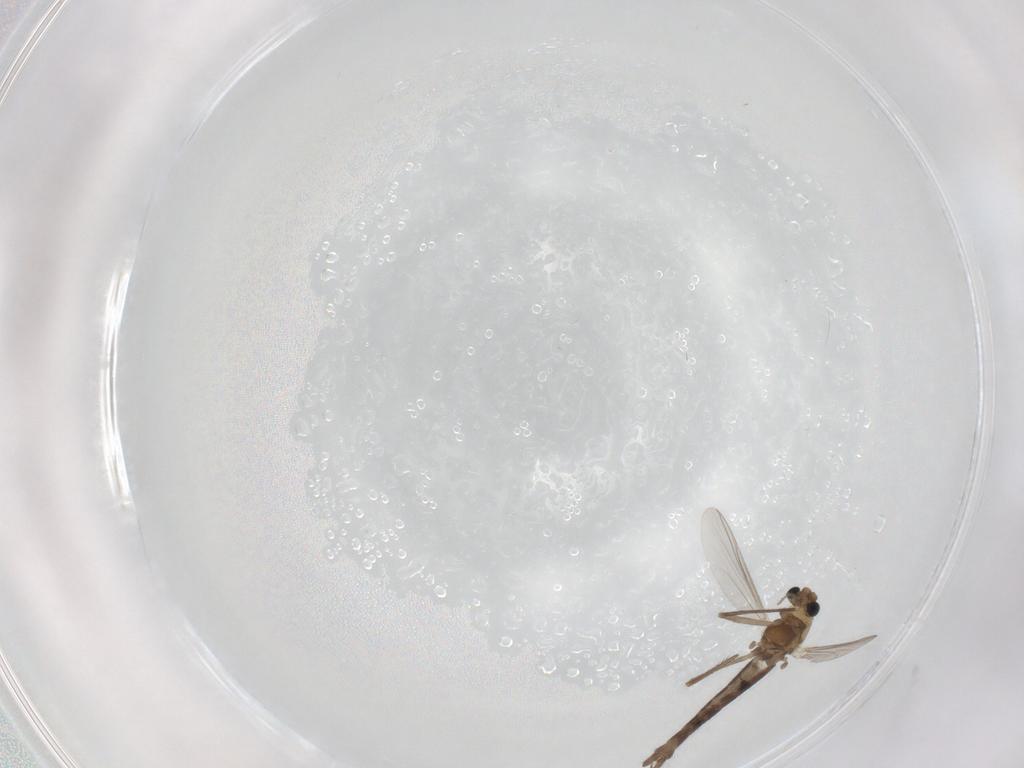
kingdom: Animalia
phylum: Arthropoda
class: Insecta
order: Diptera
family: Chironomidae
